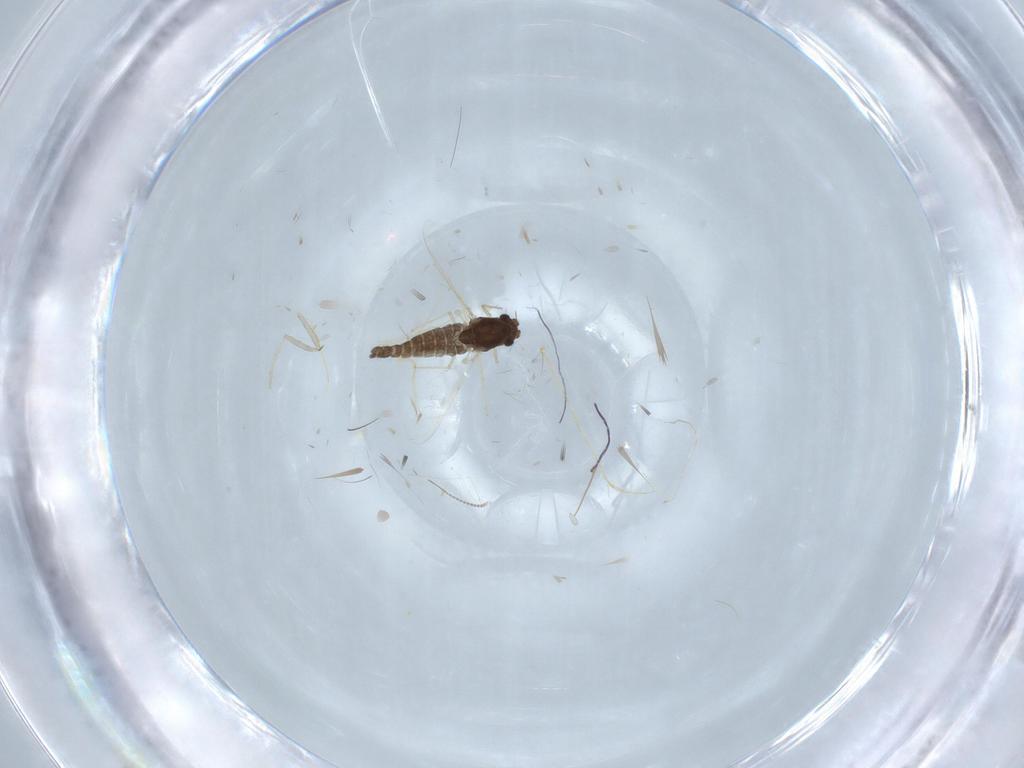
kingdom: Animalia
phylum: Arthropoda
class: Insecta
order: Diptera
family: Chironomidae
